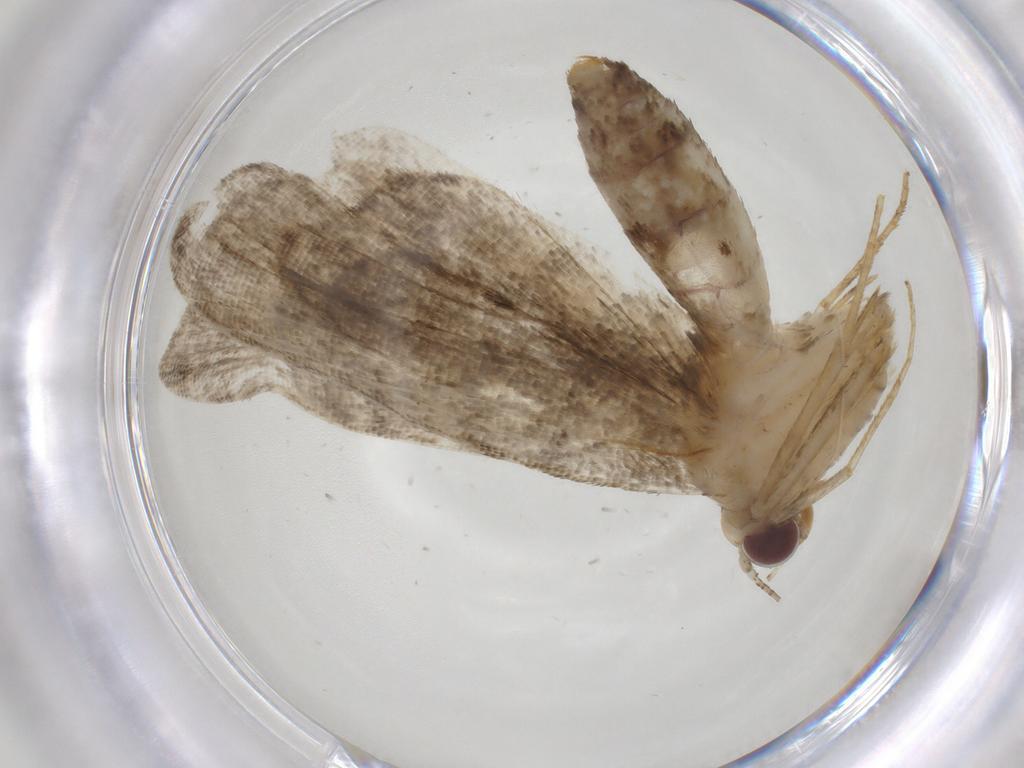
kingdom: Animalia
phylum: Arthropoda
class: Insecta
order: Lepidoptera
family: Erebidae
